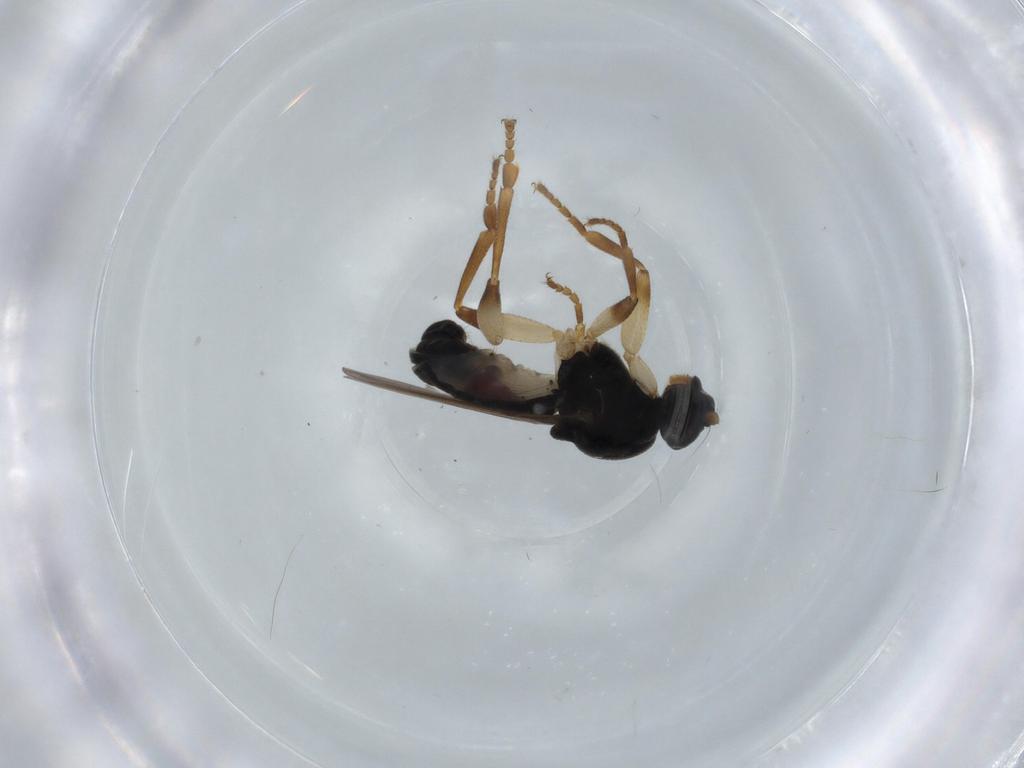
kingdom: Animalia
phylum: Arthropoda
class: Insecta
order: Diptera
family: Sphaeroceridae
